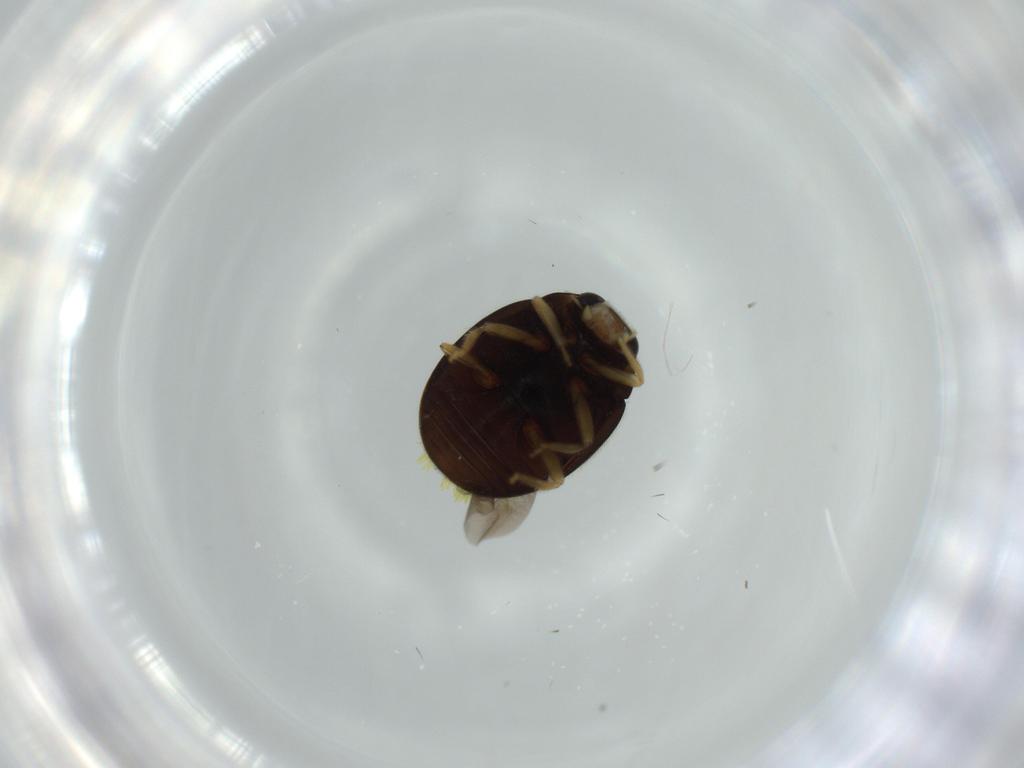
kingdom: Animalia
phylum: Arthropoda
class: Insecta
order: Coleoptera
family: Coccinellidae
